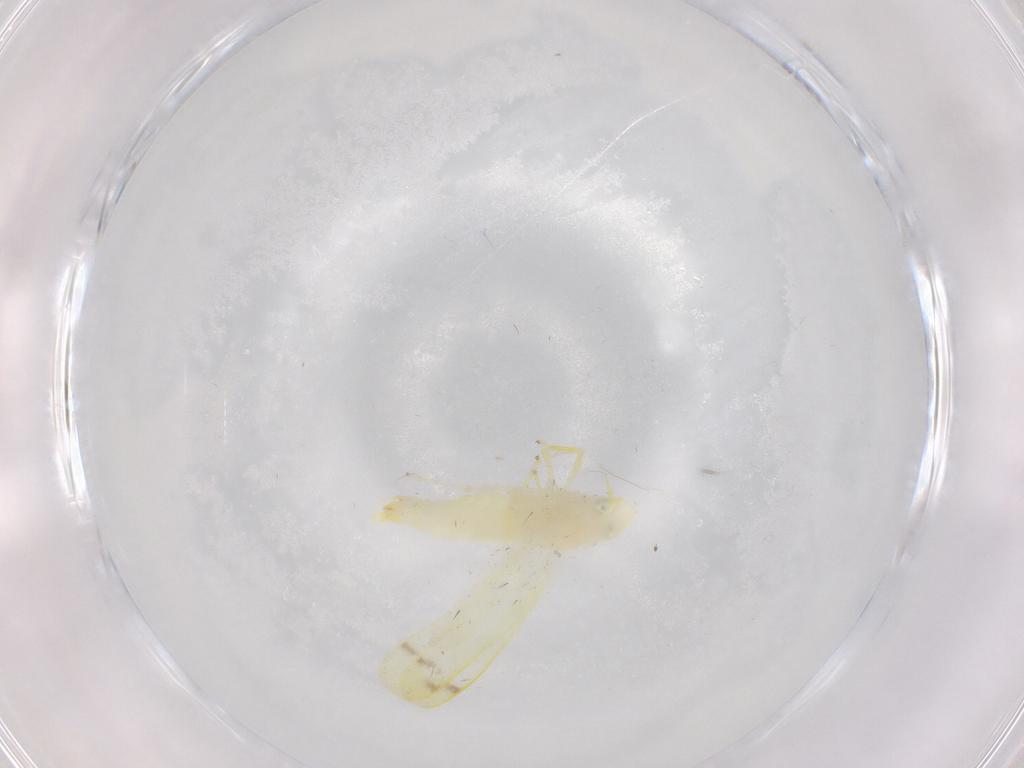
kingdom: Animalia
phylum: Arthropoda
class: Insecta
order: Hemiptera
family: Cicadellidae
